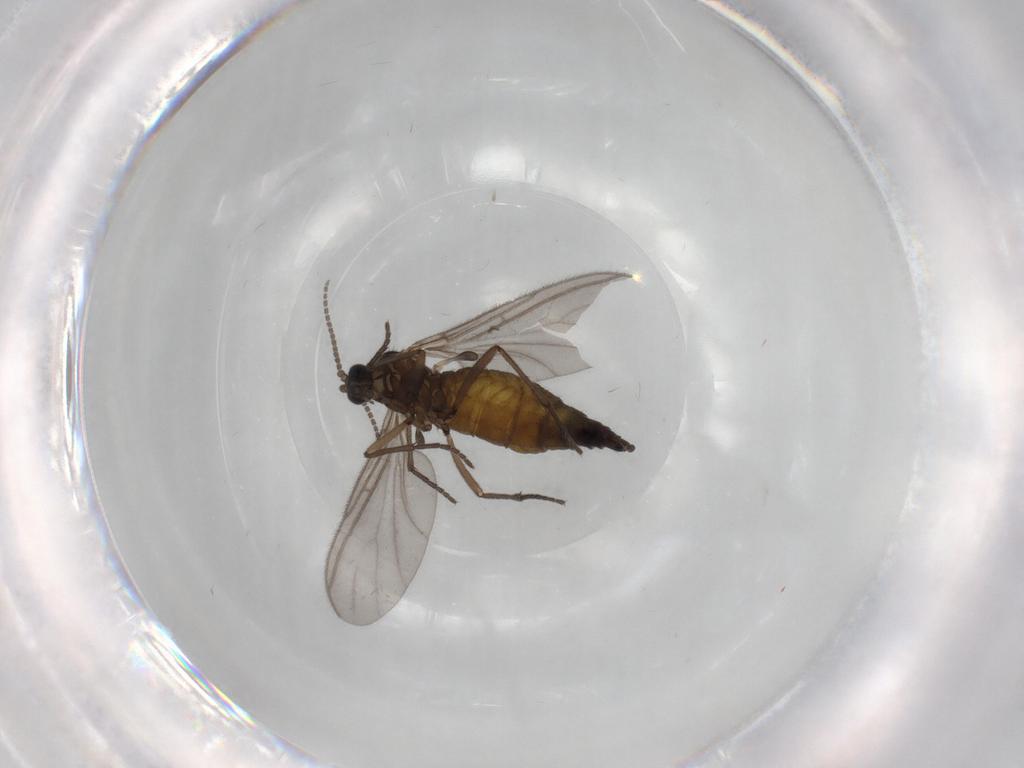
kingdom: Animalia
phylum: Arthropoda
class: Insecta
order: Diptera
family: Sciaridae
